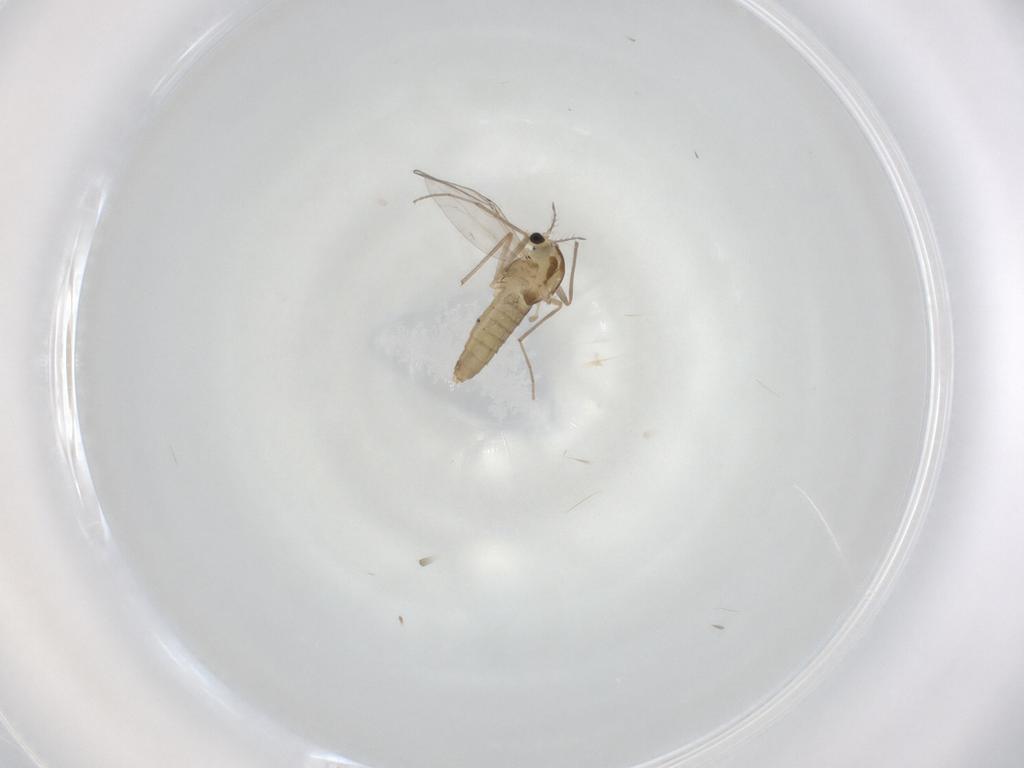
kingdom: Animalia
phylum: Arthropoda
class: Insecta
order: Diptera
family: Chironomidae
